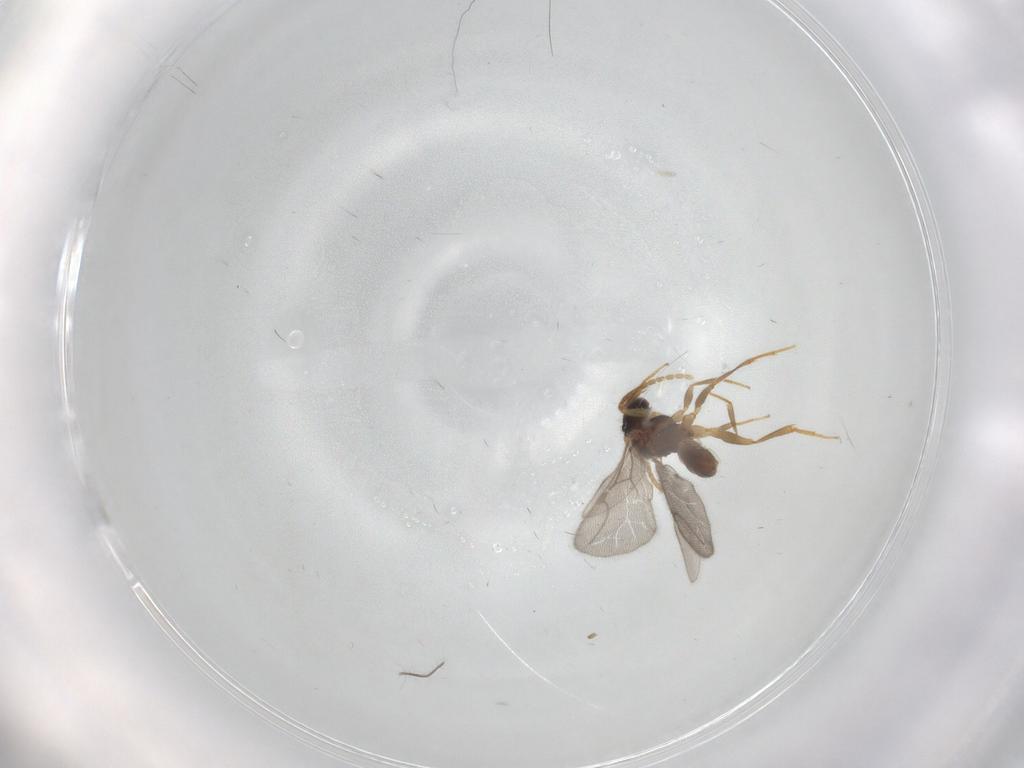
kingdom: Animalia
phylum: Arthropoda
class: Insecta
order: Hymenoptera
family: Bethylidae
